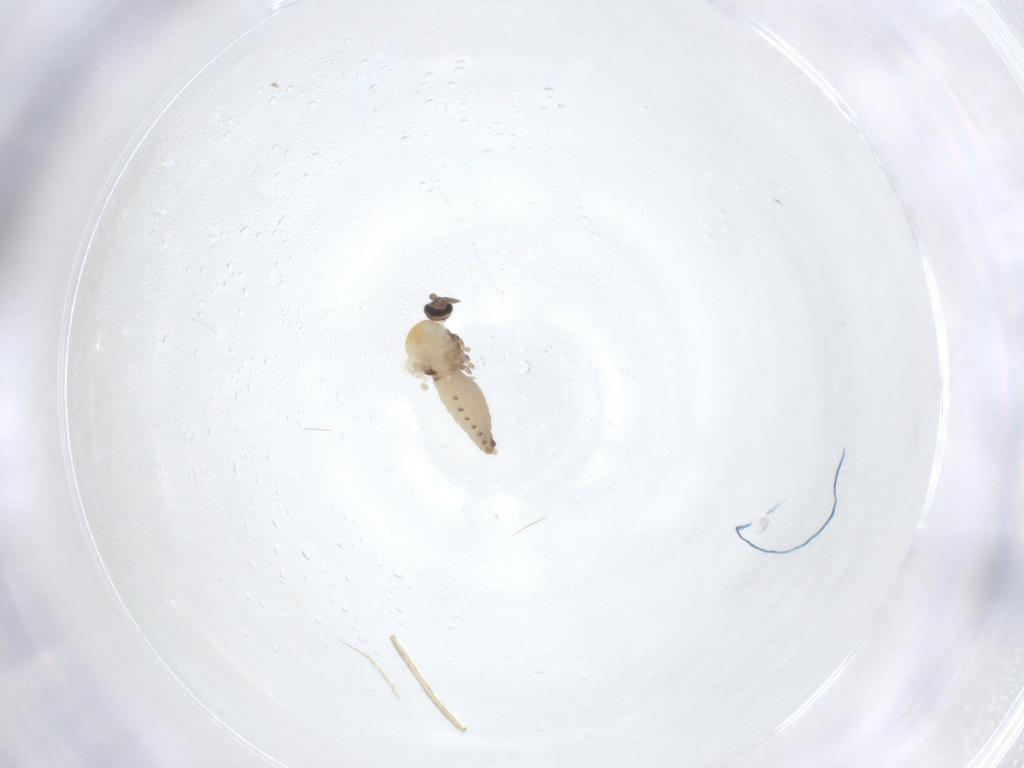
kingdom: Animalia
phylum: Arthropoda
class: Insecta
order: Diptera
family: Ceratopogonidae
